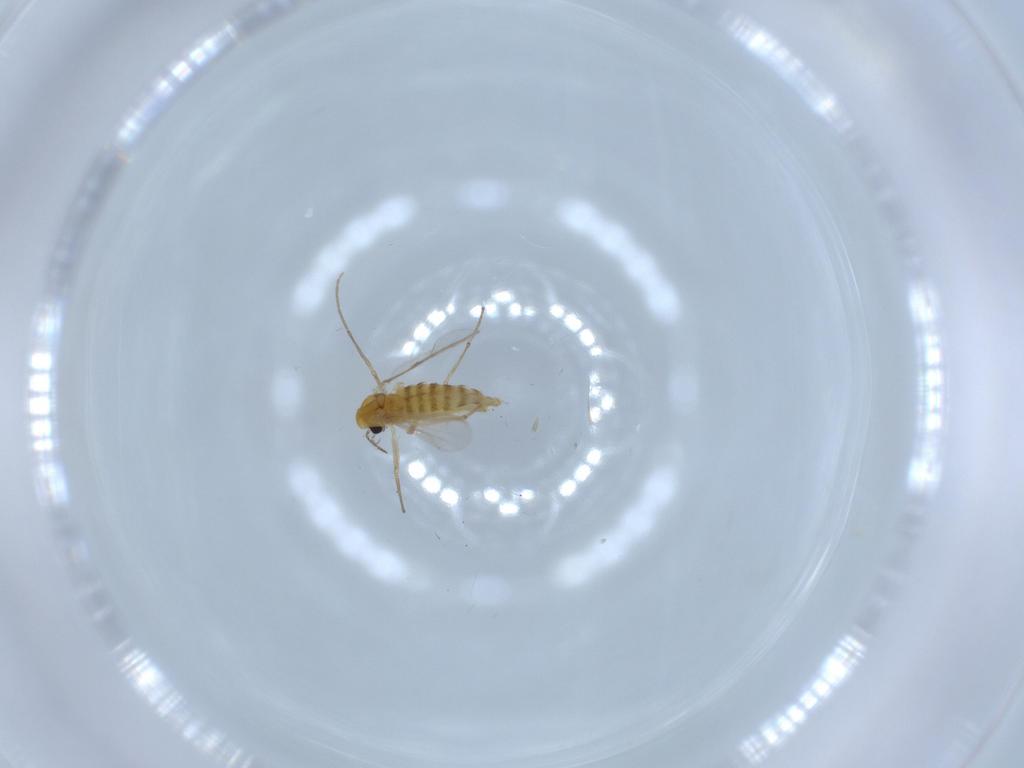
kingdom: Animalia
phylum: Arthropoda
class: Insecta
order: Diptera
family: Chironomidae
